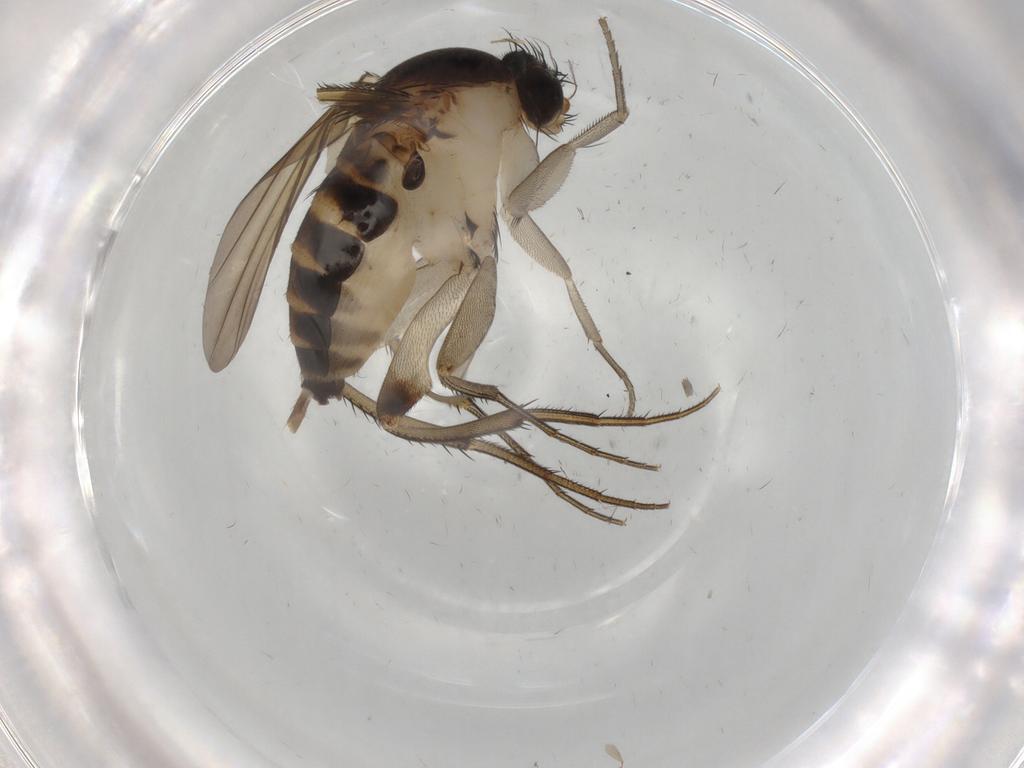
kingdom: Animalia
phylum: Arthropoda
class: Insecta
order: Diptera
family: Phoridae
